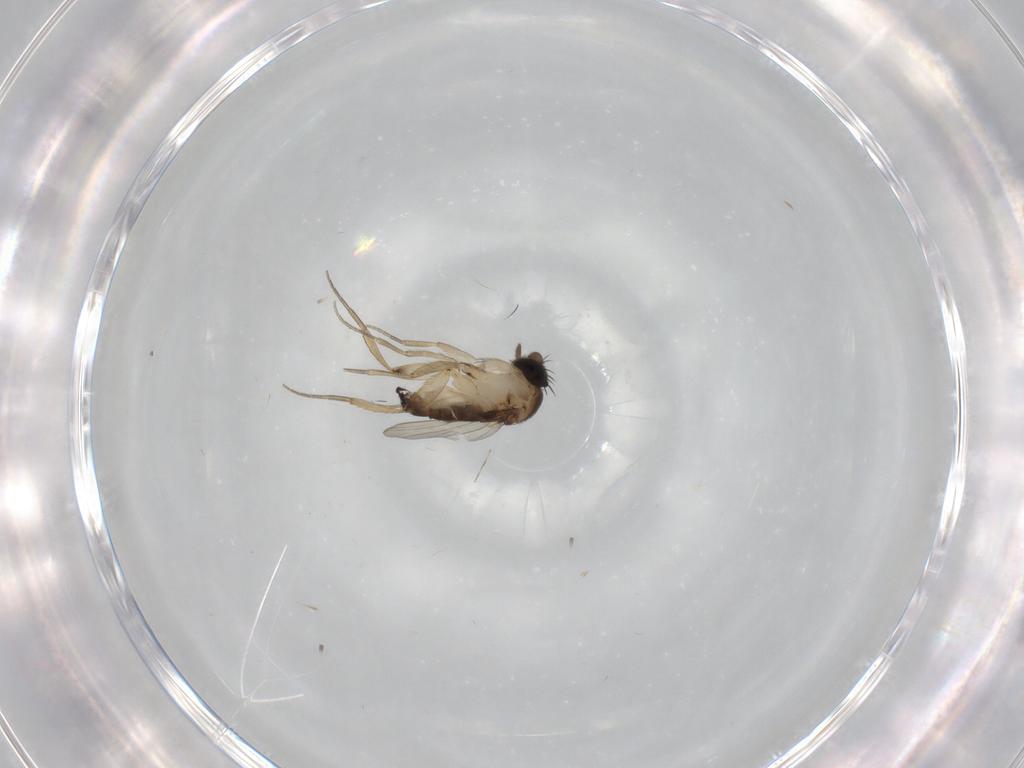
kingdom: Animalia
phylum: Arthropoda
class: Insecta
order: Diptera
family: Phoridae
